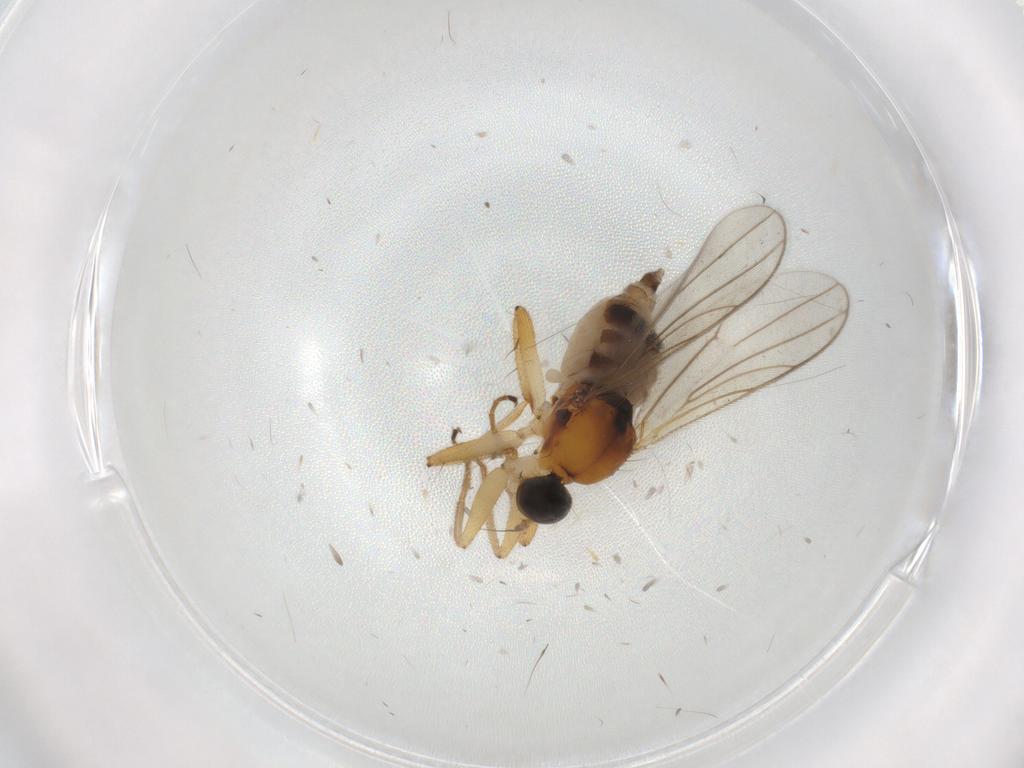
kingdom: Animalia
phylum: Arthropoda
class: Insecta
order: Diptera
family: Hybotidae
